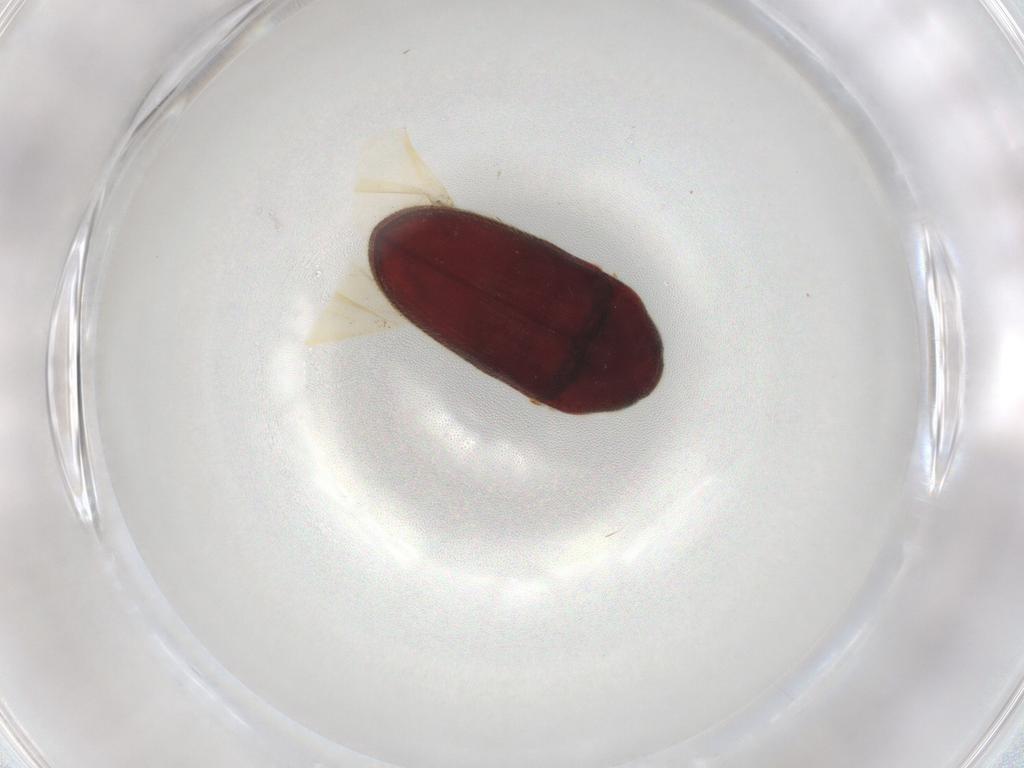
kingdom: Animalia
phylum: Arthropoda
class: Insecta
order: Coleoptera
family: Throscidae
